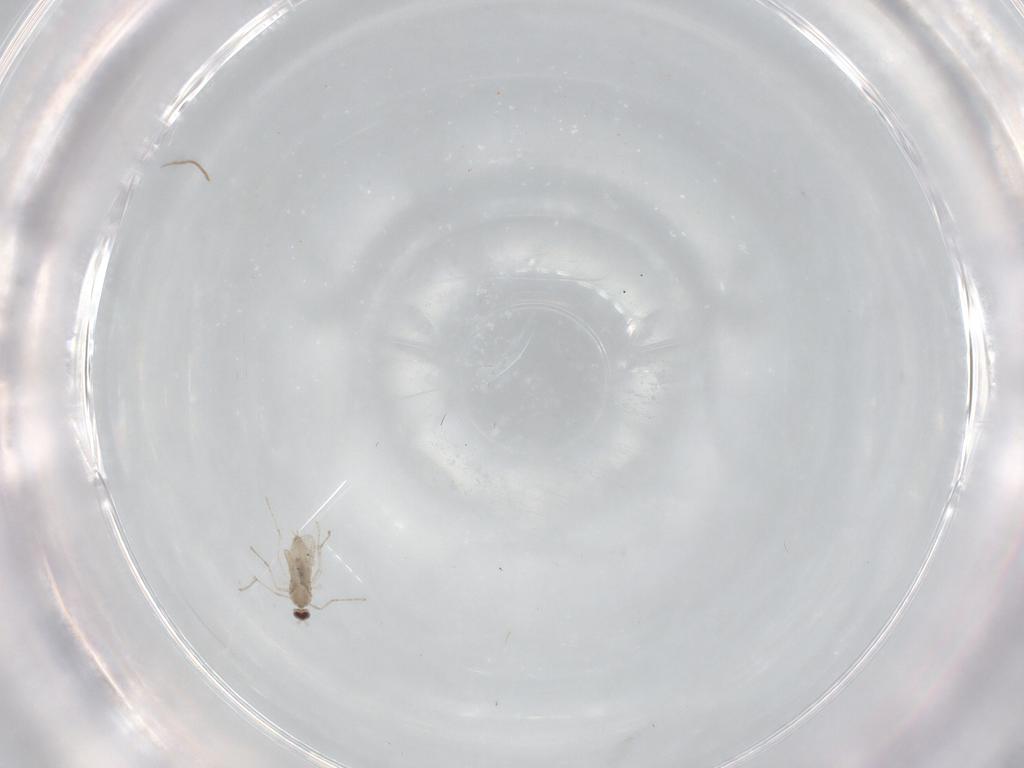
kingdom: Animalia
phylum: Arthropoda
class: Insecta
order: Diptera
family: Cecidomyiidae
